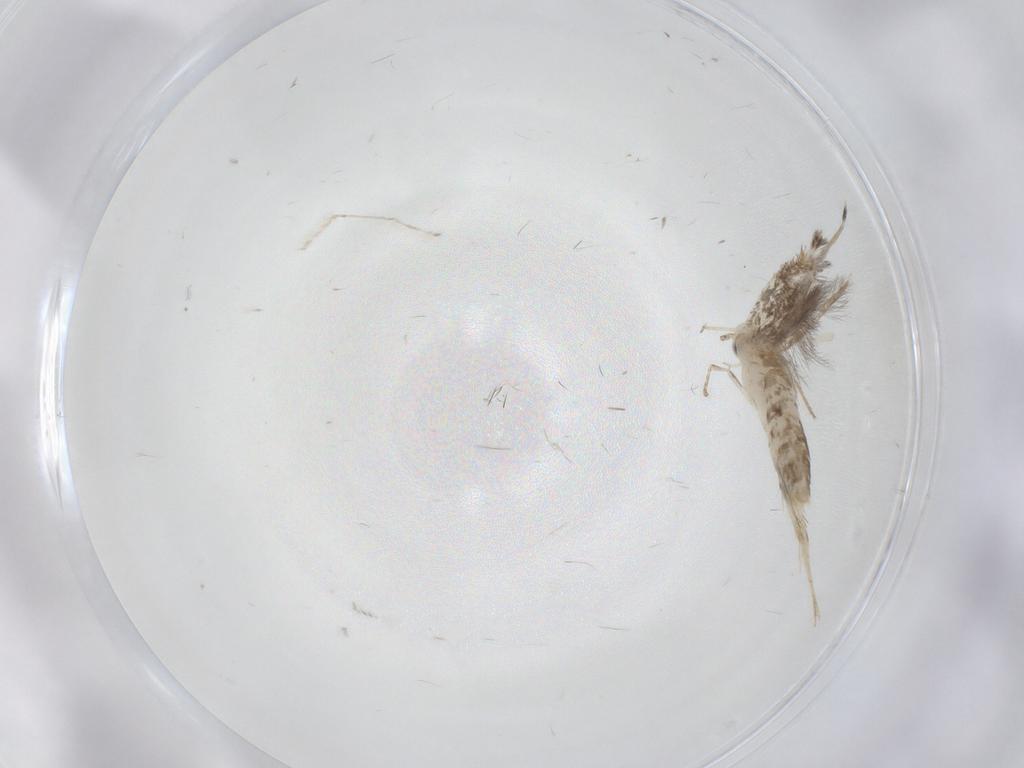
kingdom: Animalia
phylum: Arthropoda
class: Insecta
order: Lepidoptera
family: Gracillariidae
